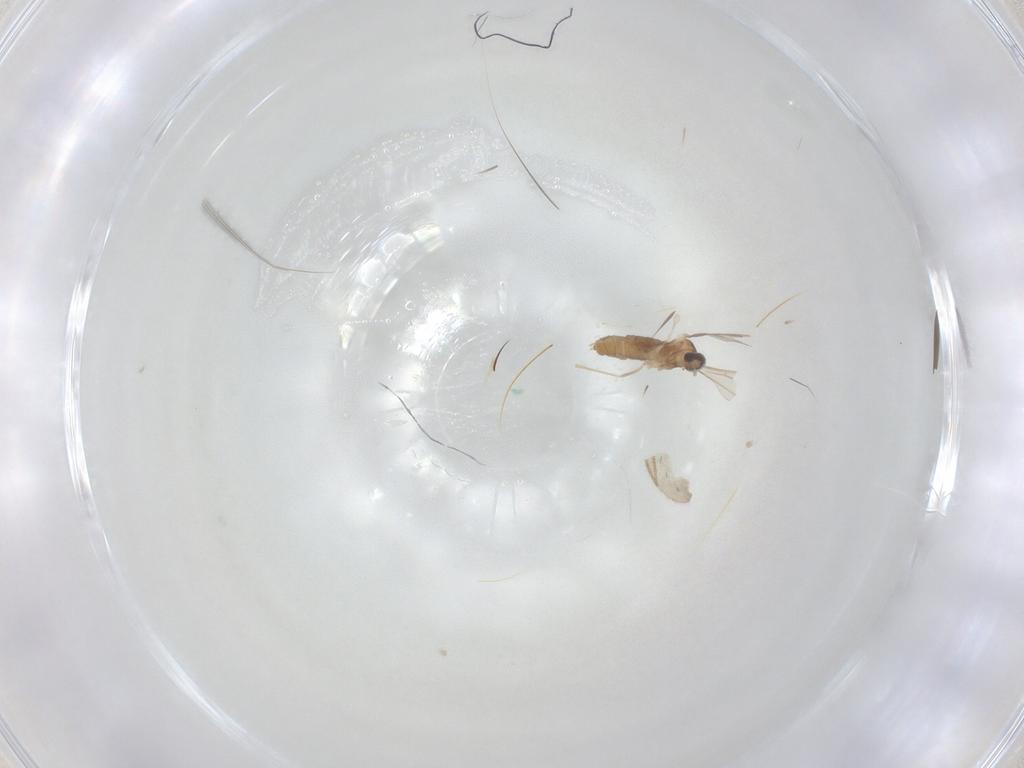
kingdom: Animalia
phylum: Arthropoda
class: Insecta
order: Diptera
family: Cecidomyiidae
